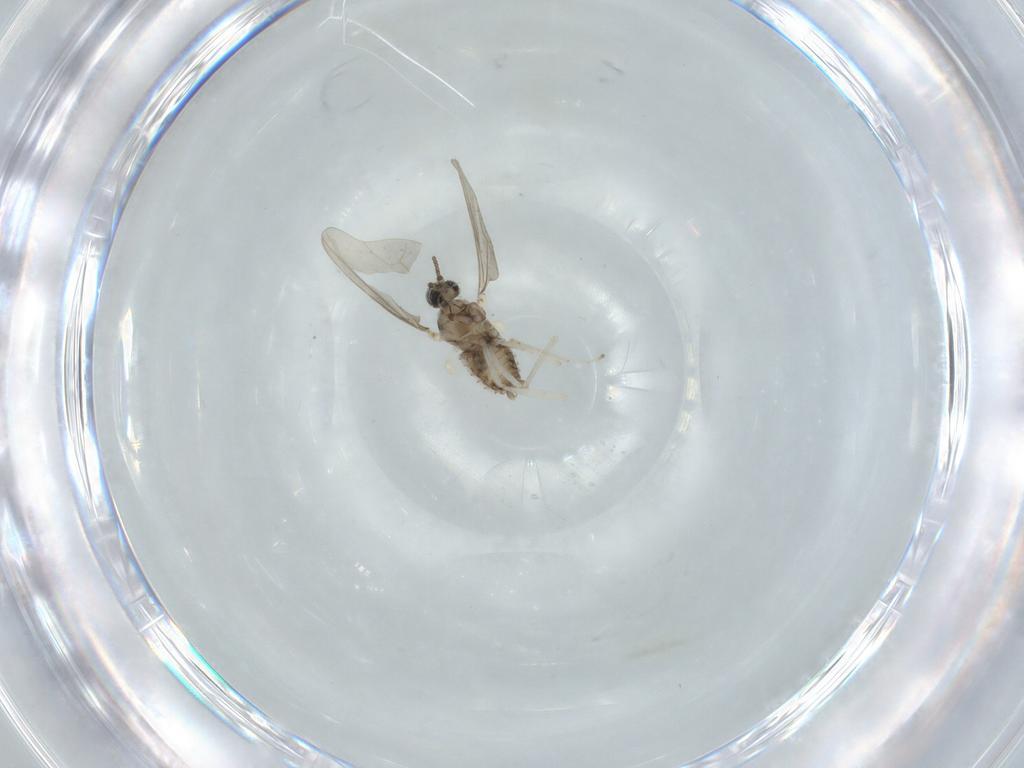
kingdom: Animalia
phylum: Arthropoda
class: Insecta
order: Diptera
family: Cecidomyiidae
